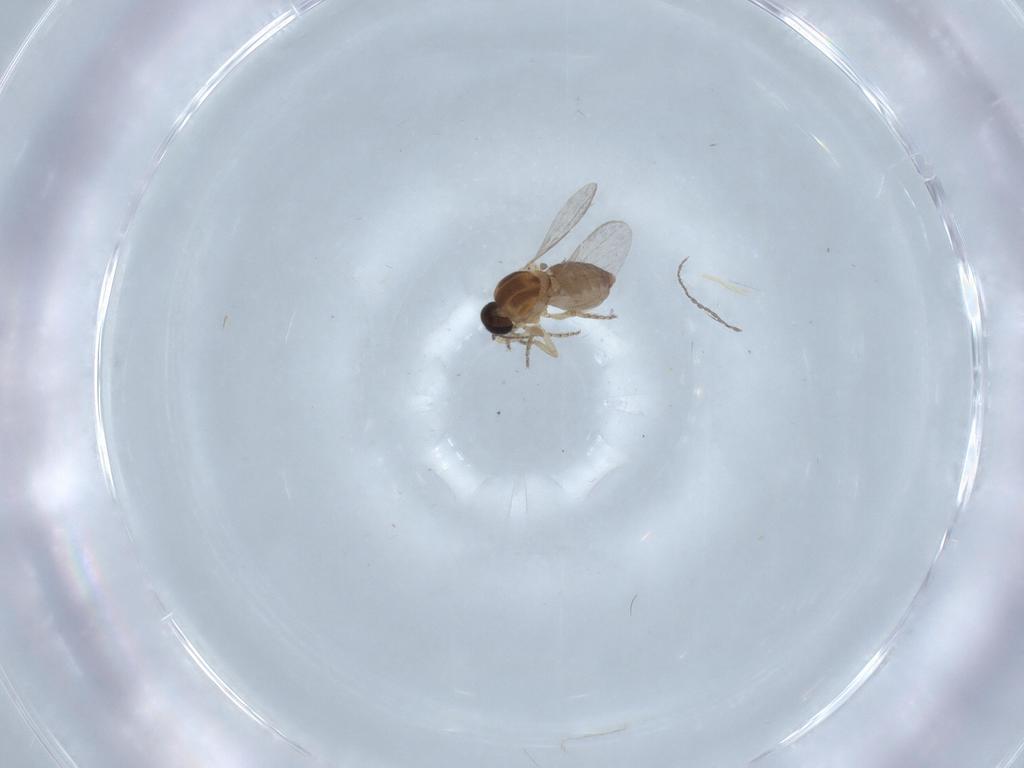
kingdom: Animalia
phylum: Arthropoda
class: Insecta
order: Diptera
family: Ceratopogonidae
